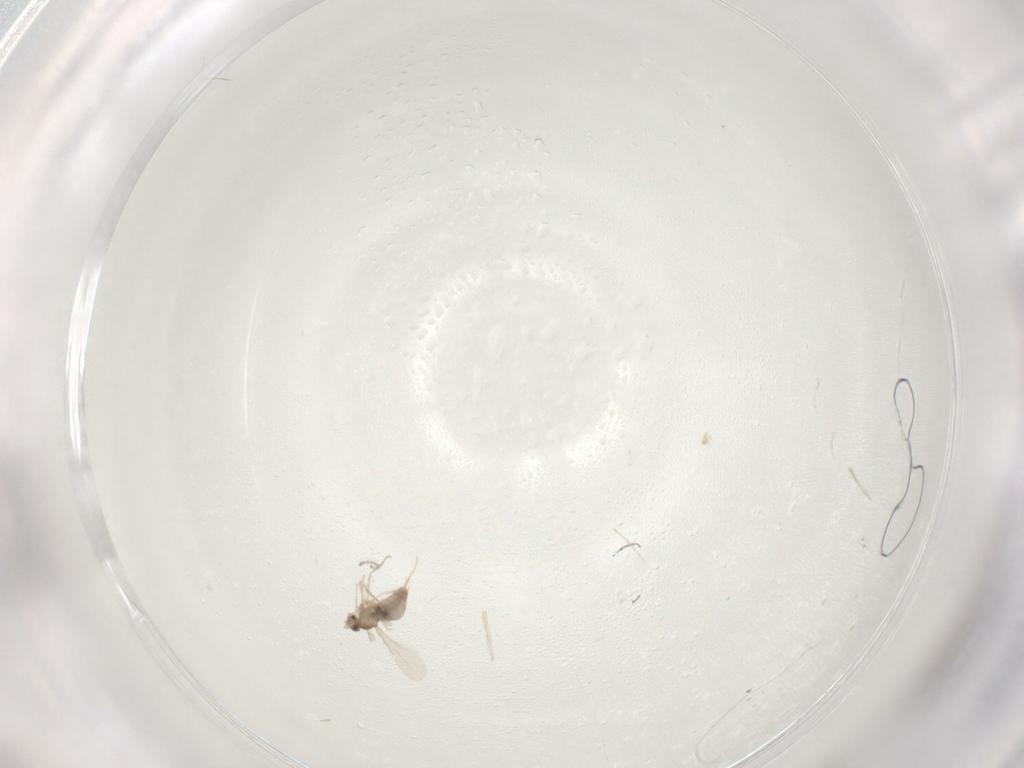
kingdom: Animalia
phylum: Arthropoda
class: Insecta
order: Diptera
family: Cecidomyiidae
